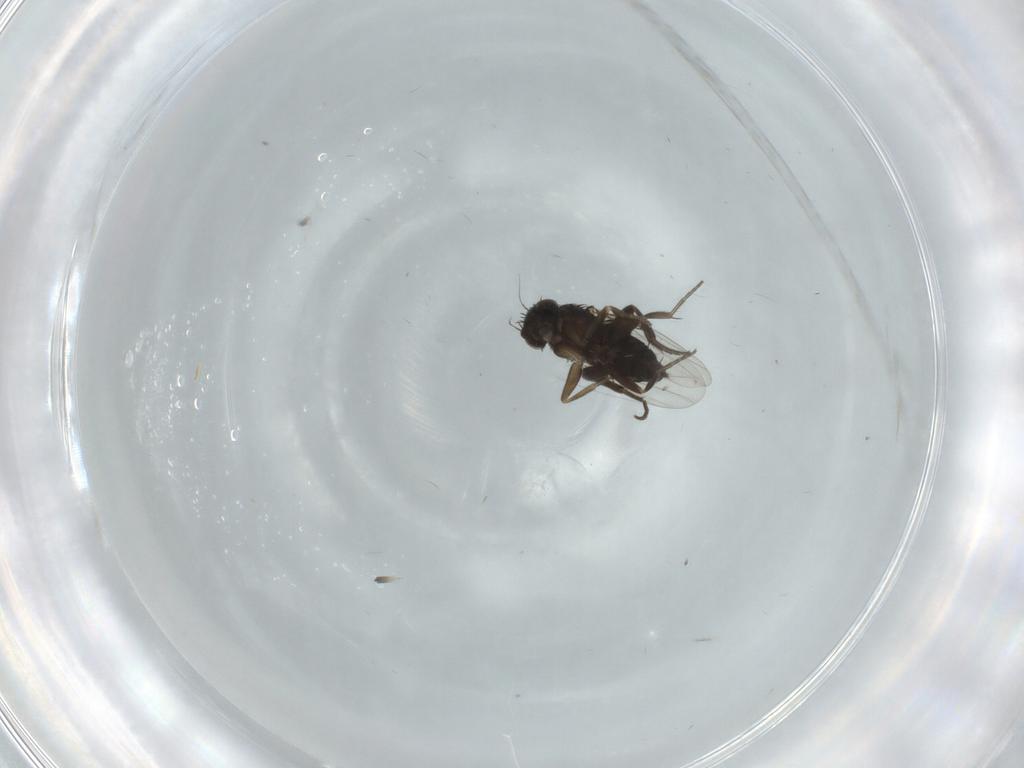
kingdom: Animalia
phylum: Arthropoda
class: Insecta
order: Diptera
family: Phoridae
